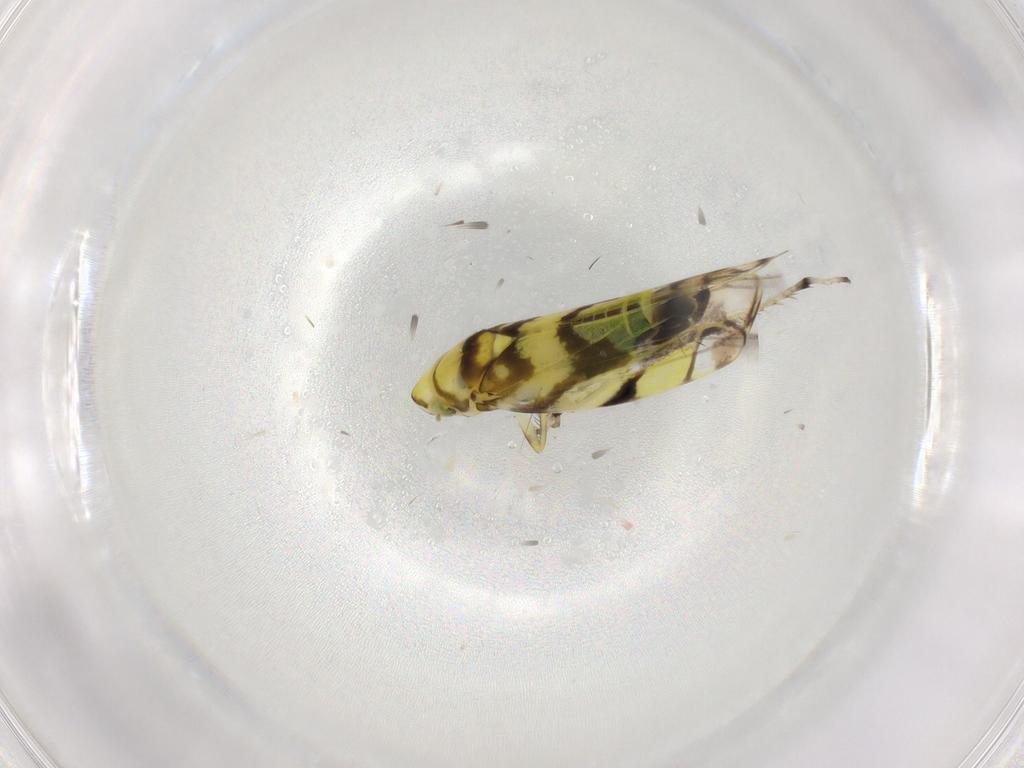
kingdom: Animalia
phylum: Arthropoda
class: Insecta
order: Hemiptera
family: Cicadellidae
